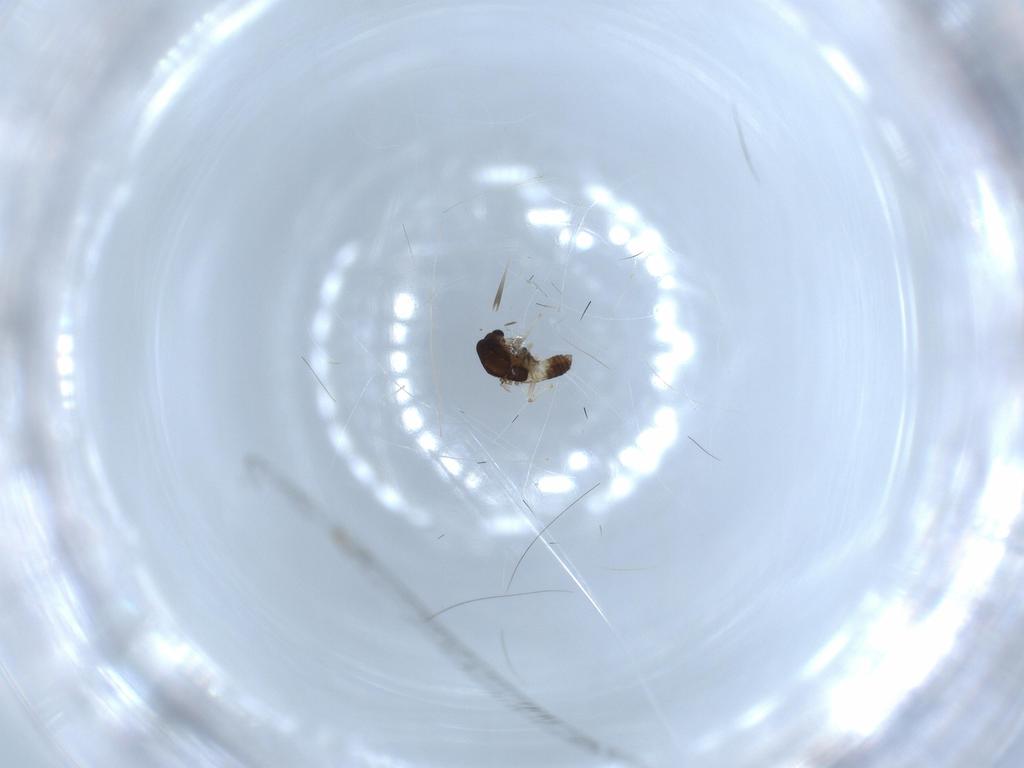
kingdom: Animalia
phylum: Arthropoda
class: Insecta
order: Diptera
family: Chironomidae
